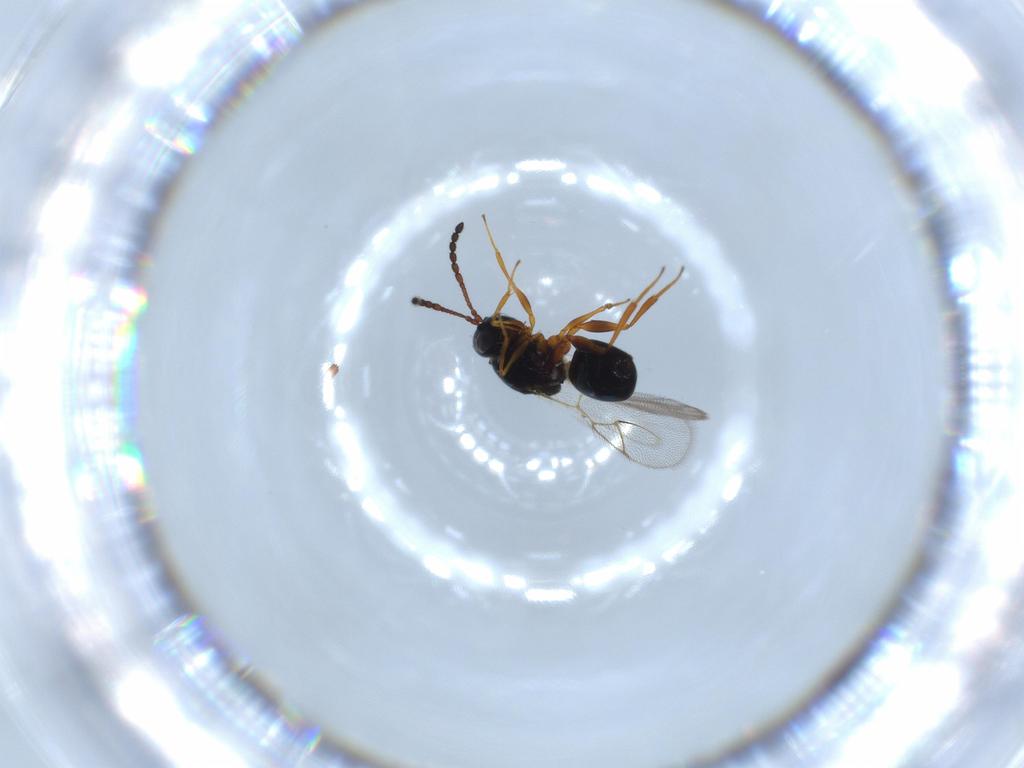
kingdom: Animalia
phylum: Arthropoda
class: Insecta
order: Hymenoptera
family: Figitidae
